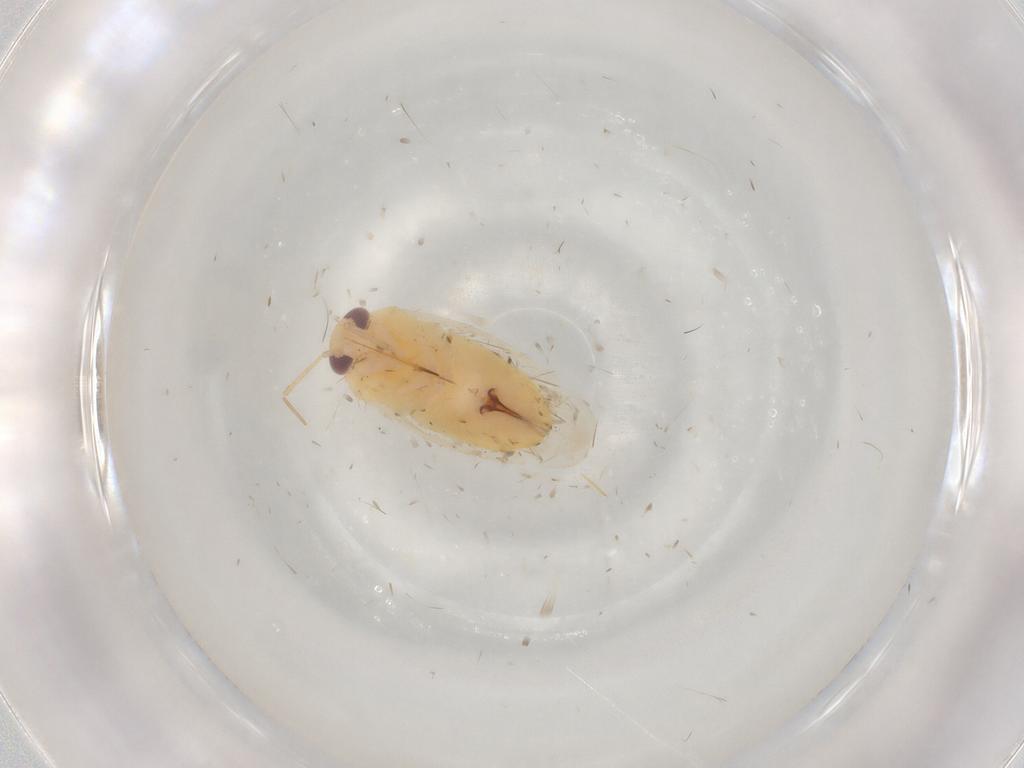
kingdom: Animalia
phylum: Arthropoda
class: Insecta
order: Hemiptera
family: Miridae
